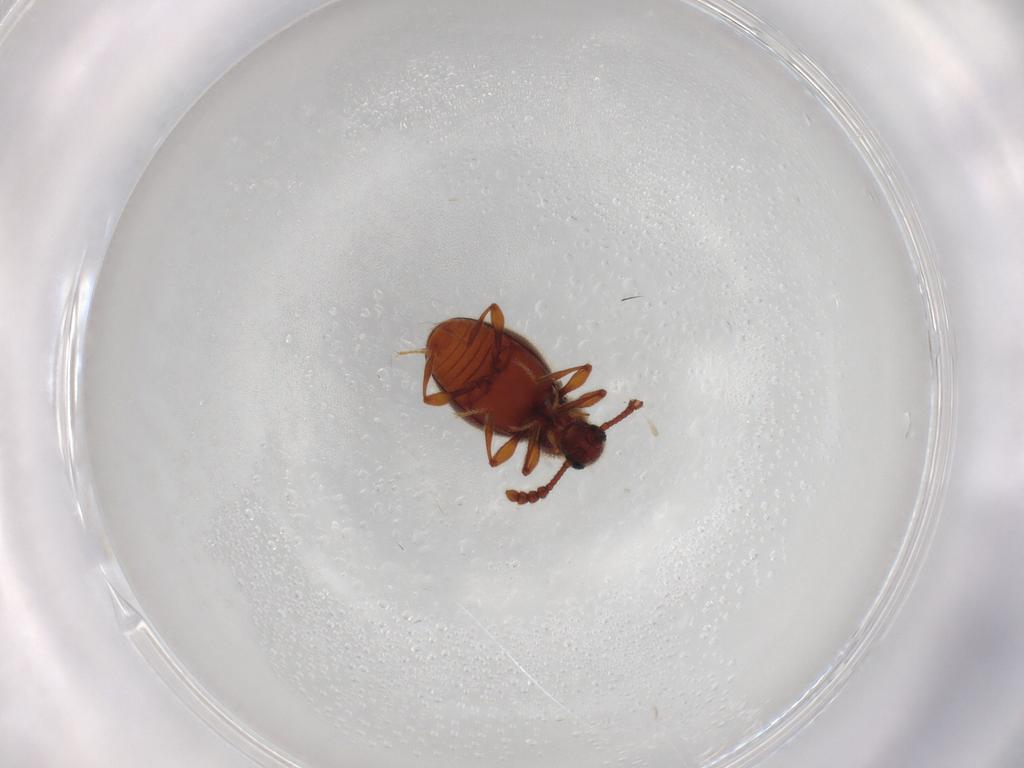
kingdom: Animalia
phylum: Arthropoda
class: Insecta
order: Coleoptera
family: Staphylinidae
